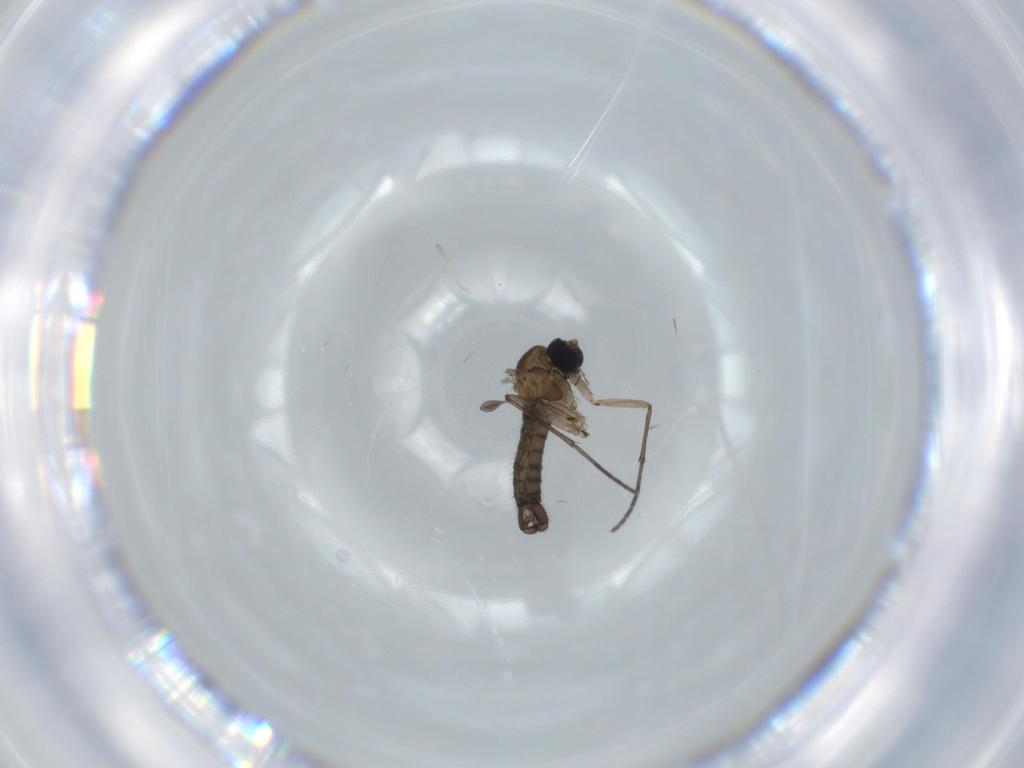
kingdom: Animalia
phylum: Arthropoda
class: Insecta
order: Diptera
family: Sciaridae
